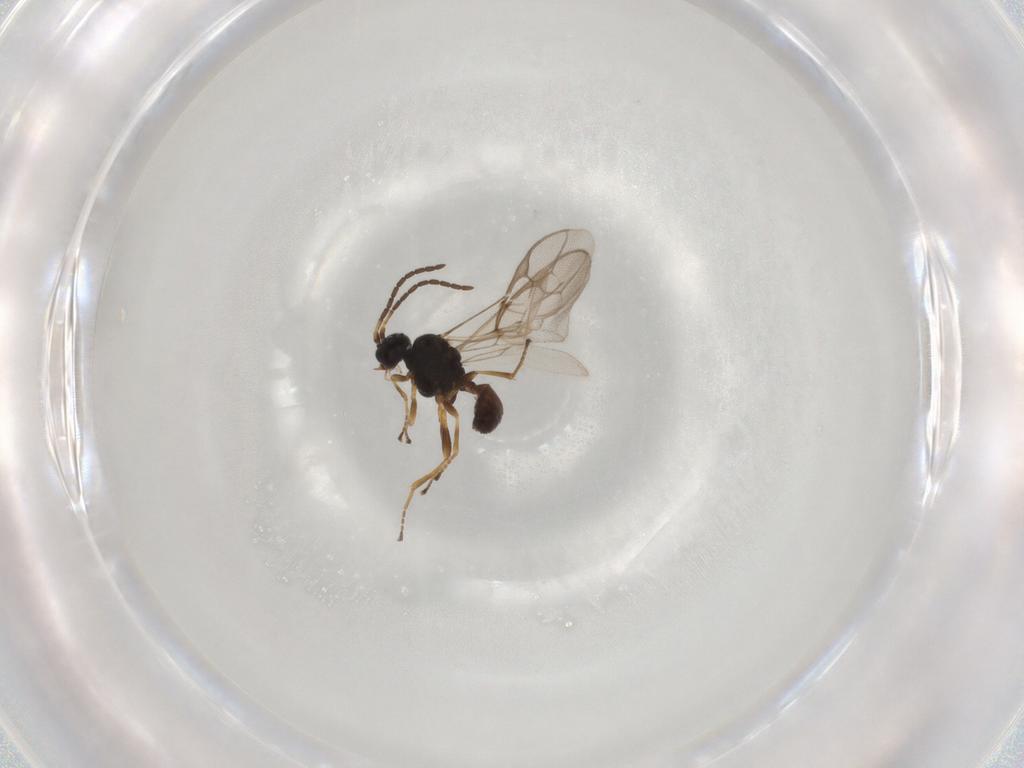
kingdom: Animalia
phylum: Arthropoda
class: Insecta
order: Hymenoptera
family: Braconidae
